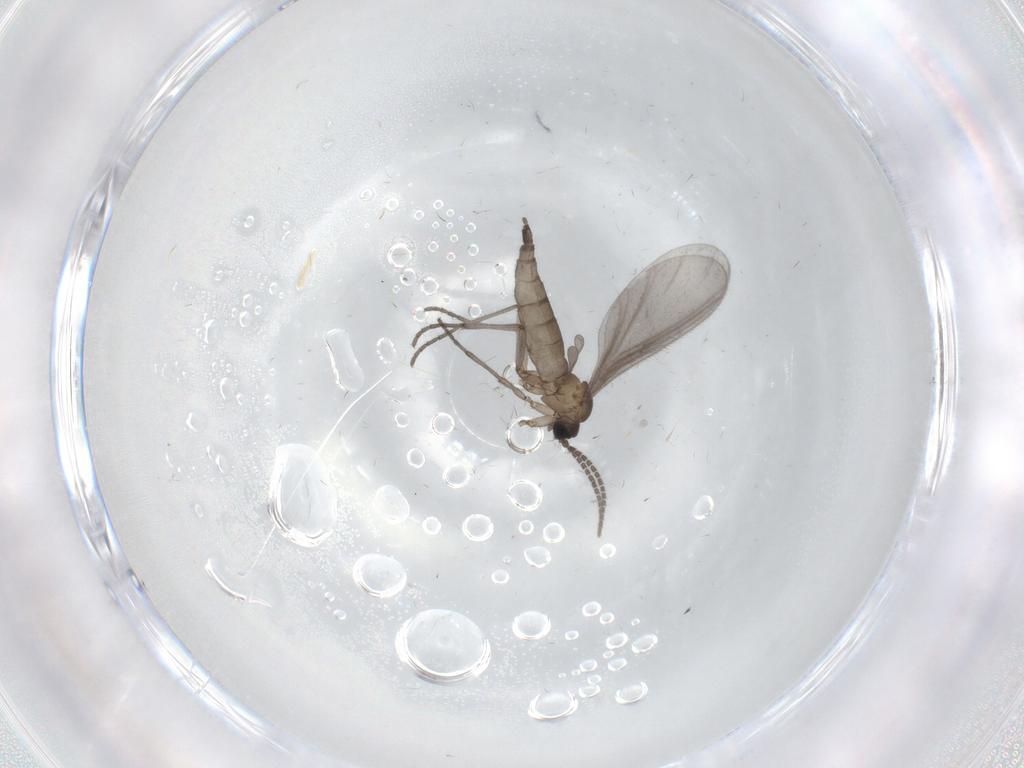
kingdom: Animalia
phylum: Arthropoda
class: Insecta
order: Diptera
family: Sciaridae
